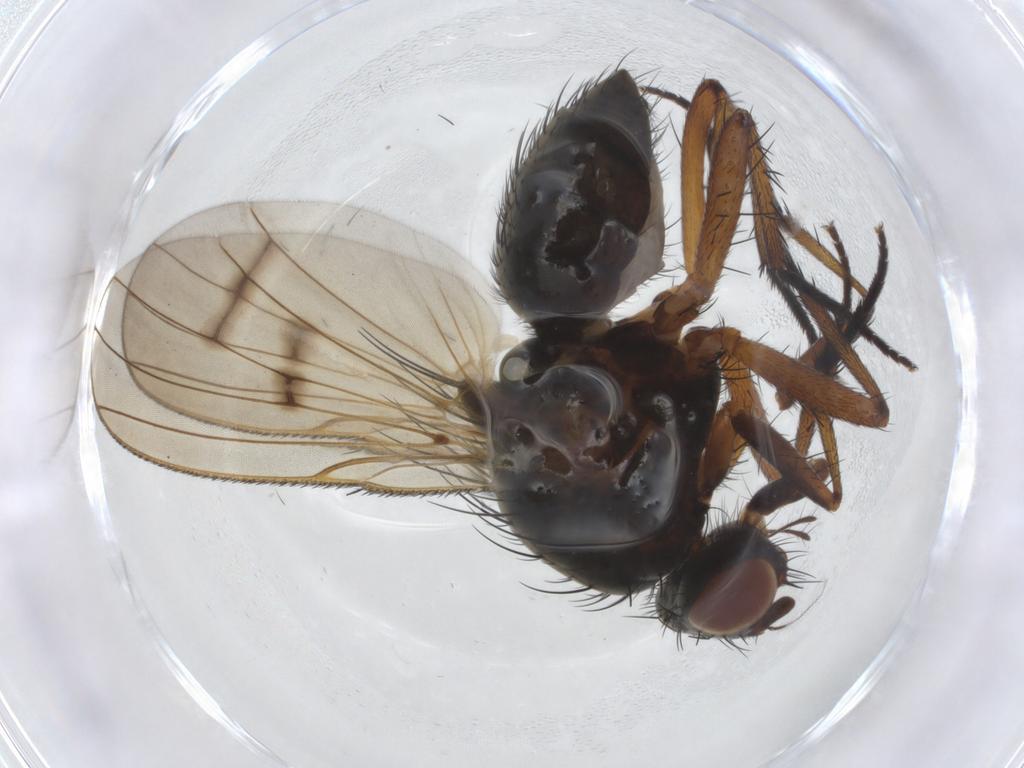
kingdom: Animalia
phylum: Arthropoda
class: Insecta
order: Diptera
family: Anthomyiidae
